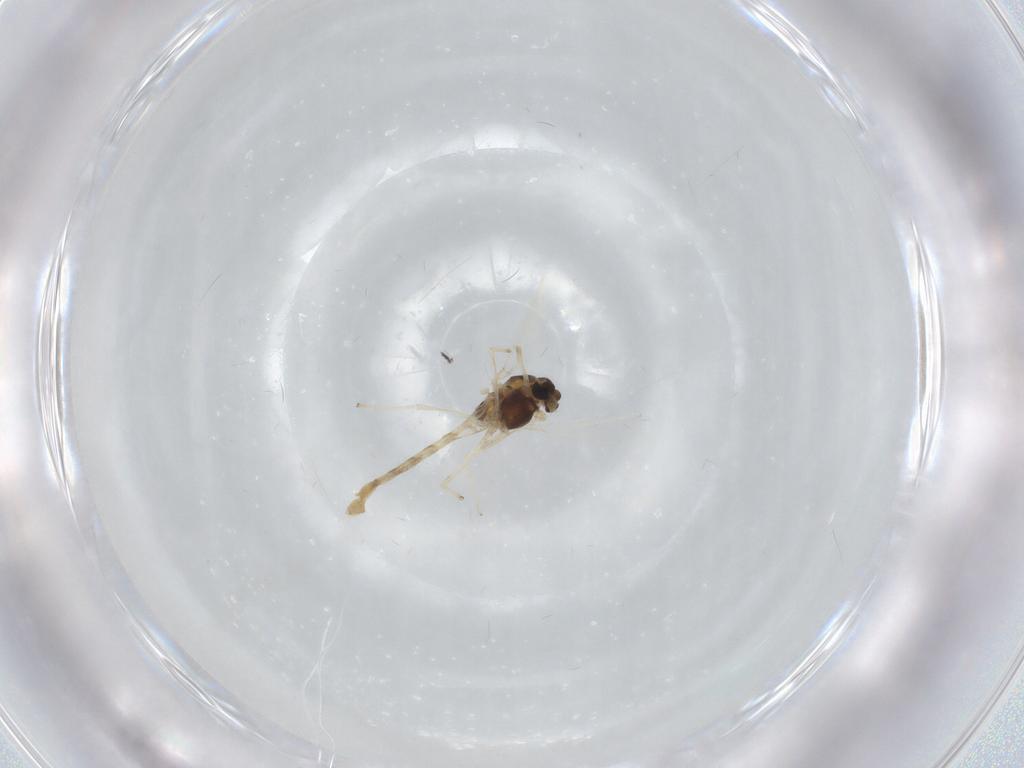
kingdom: Animalia
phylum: Arthropoda
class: Insecta
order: Diptera
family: Chironomidae
